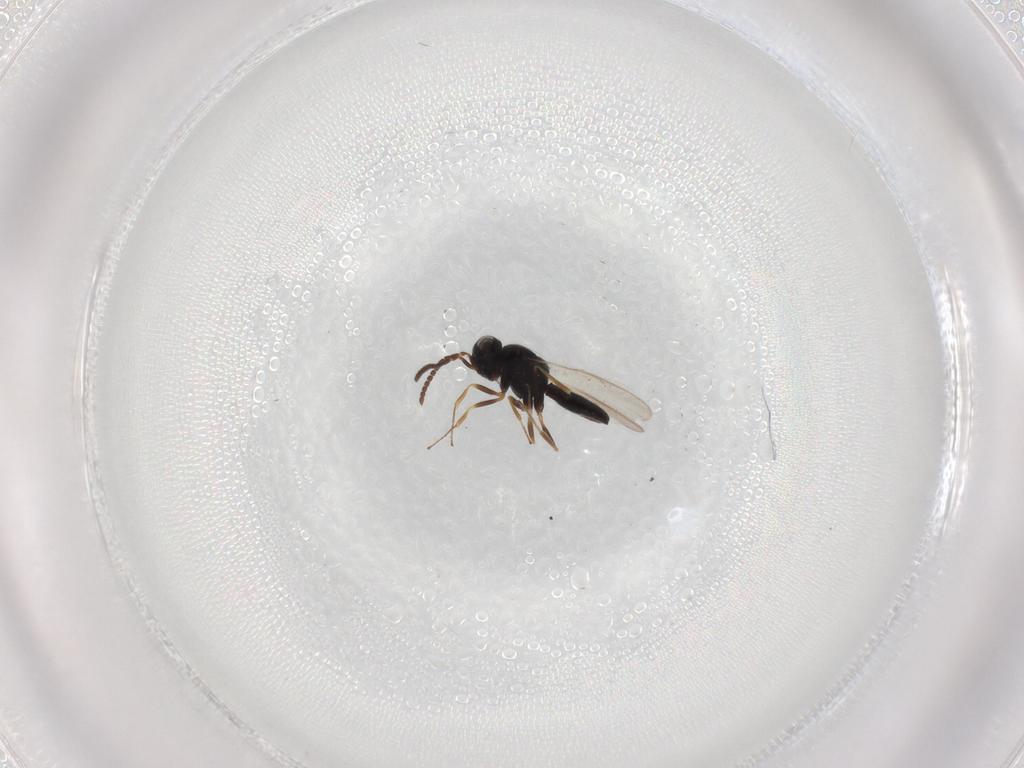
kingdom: Animalia
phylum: Arthropoda
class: Insecta
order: Hymenoptera
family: Scelionidae
